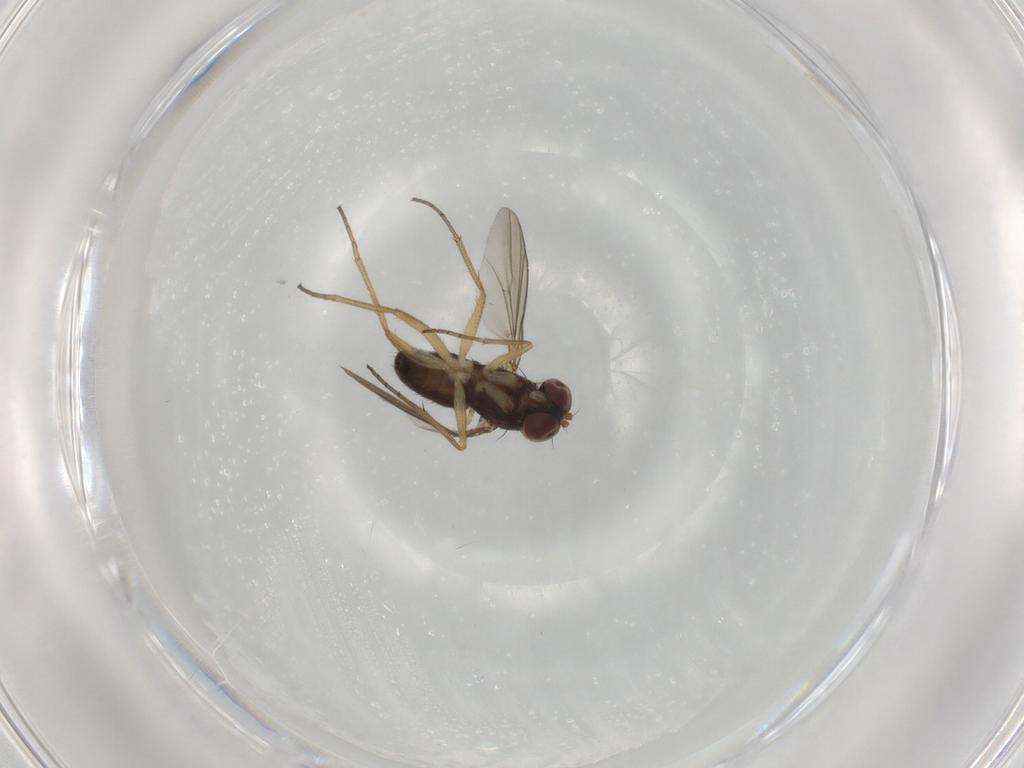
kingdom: Animalia
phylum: Arthropoda
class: Insecta
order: Diptera
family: Dolichopodidae
